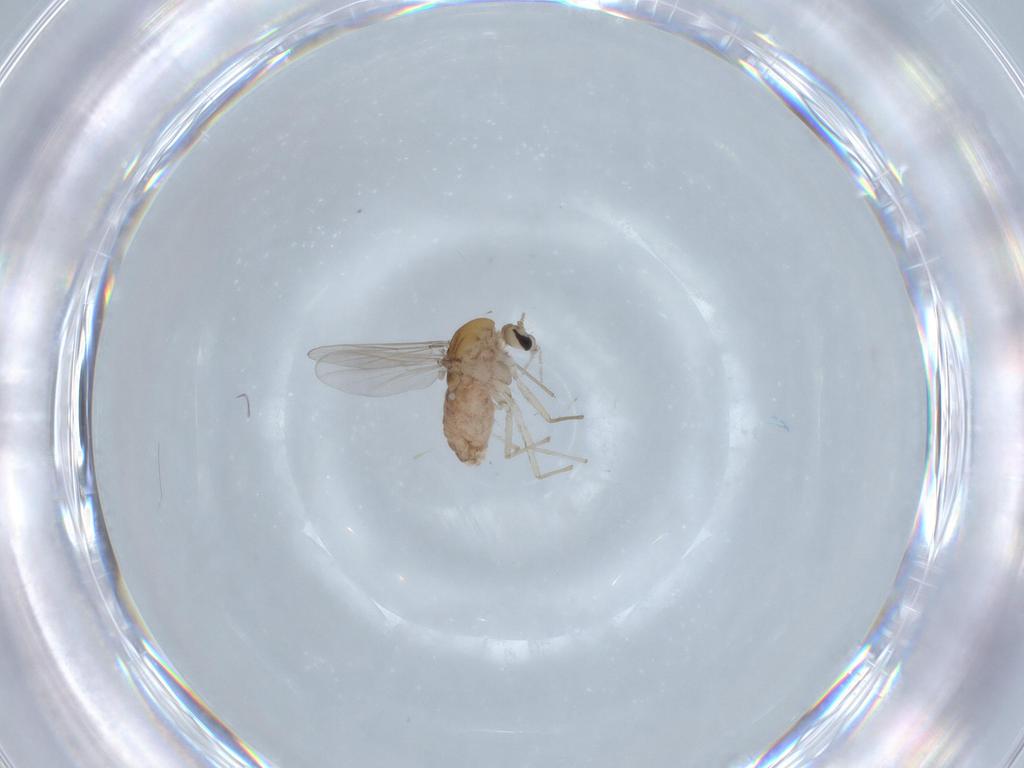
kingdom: Animalia
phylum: Arthropoda
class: Insecta
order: Diptera
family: Chironomidae
